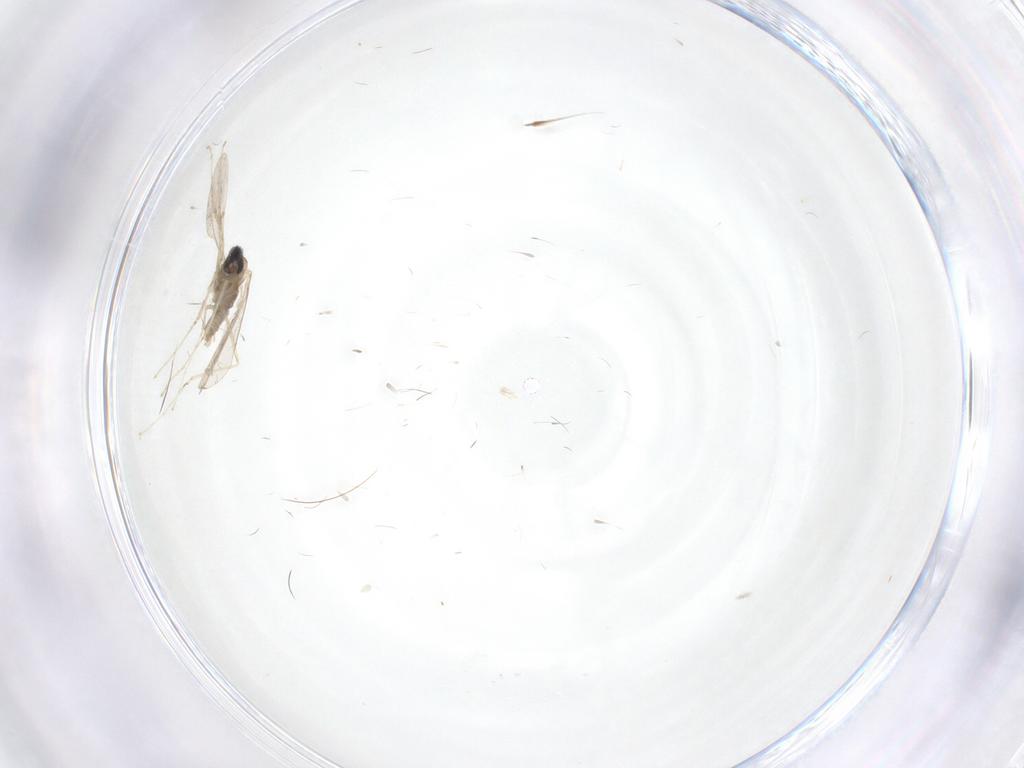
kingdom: Animalia
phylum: Arthropoda
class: Insecta
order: Diptera
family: Cecidomyiidae
